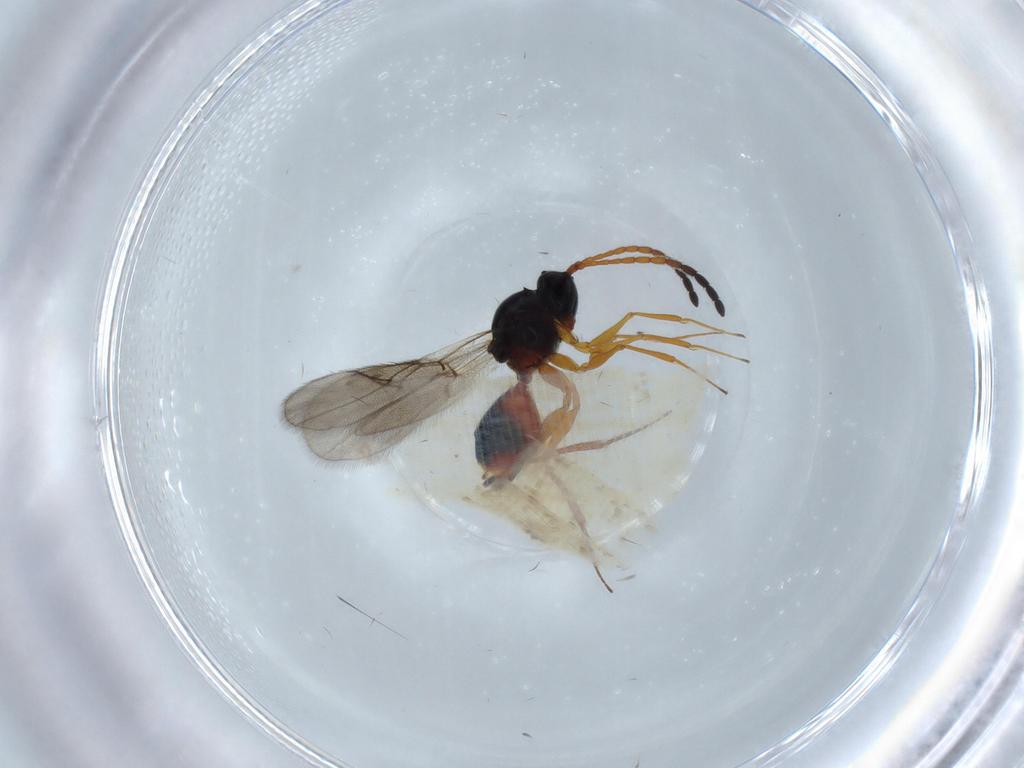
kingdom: Animalia
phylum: Arthropoda
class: Insecta
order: Hymenoptera
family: Figitidae
